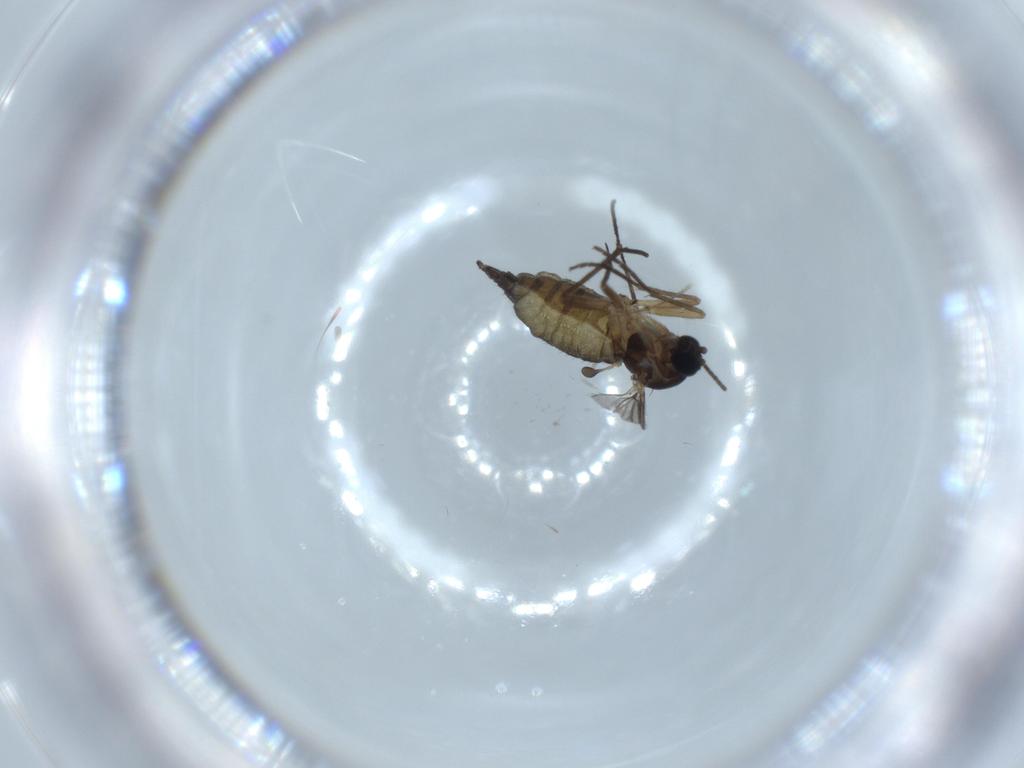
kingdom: Animalia
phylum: Arthropoda
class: Insecta
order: Diptera
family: Sciaridae
